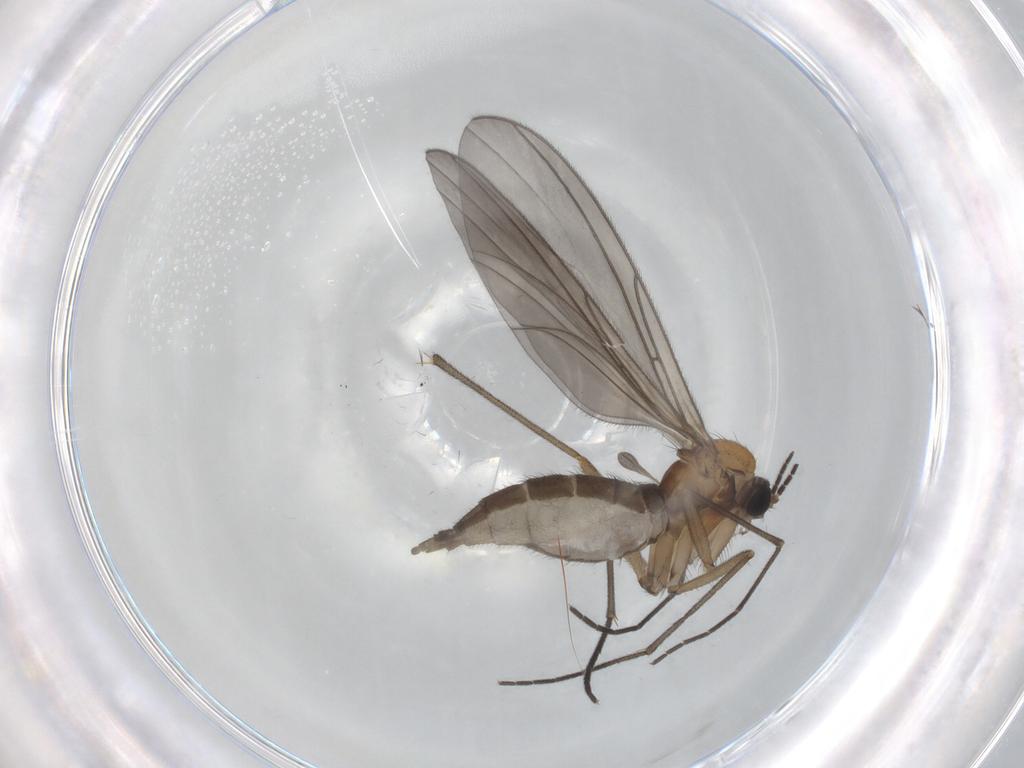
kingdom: Animalia
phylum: Arthropoda
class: Insecta
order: Diptera
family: Sciaridae
